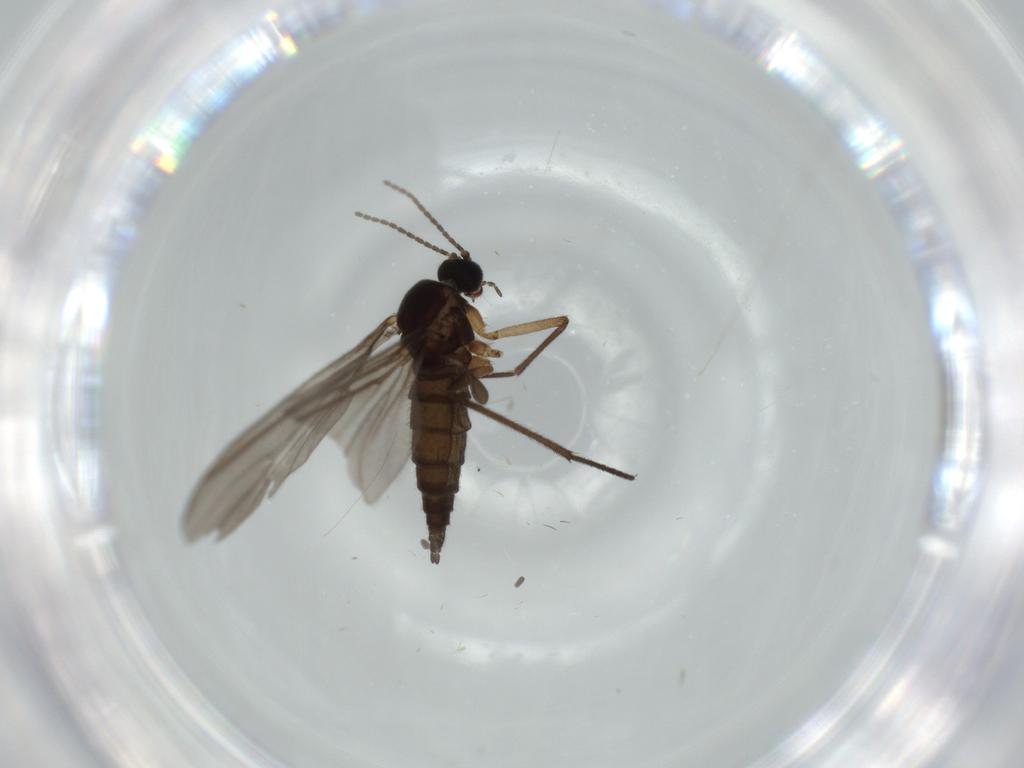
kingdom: Animalia
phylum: Arthropoda
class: Insecta
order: Diptera
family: Sciaridae
